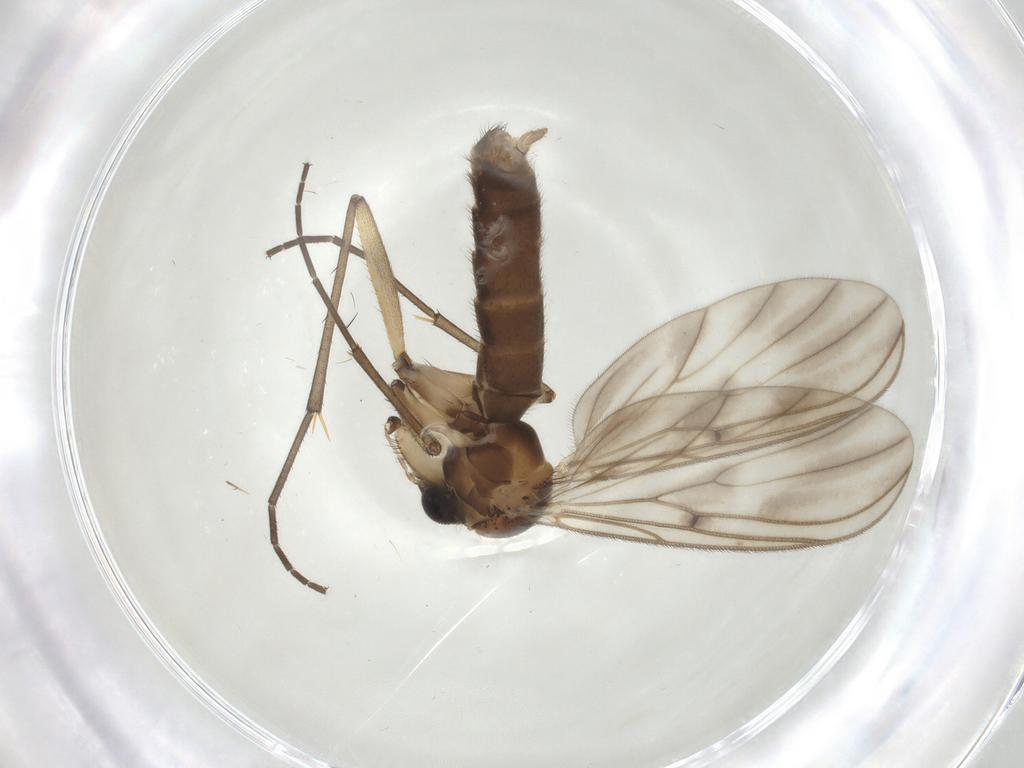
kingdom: Animalia
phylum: Arthropoda
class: Insecta
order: Diptera
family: Mycetophilidae
